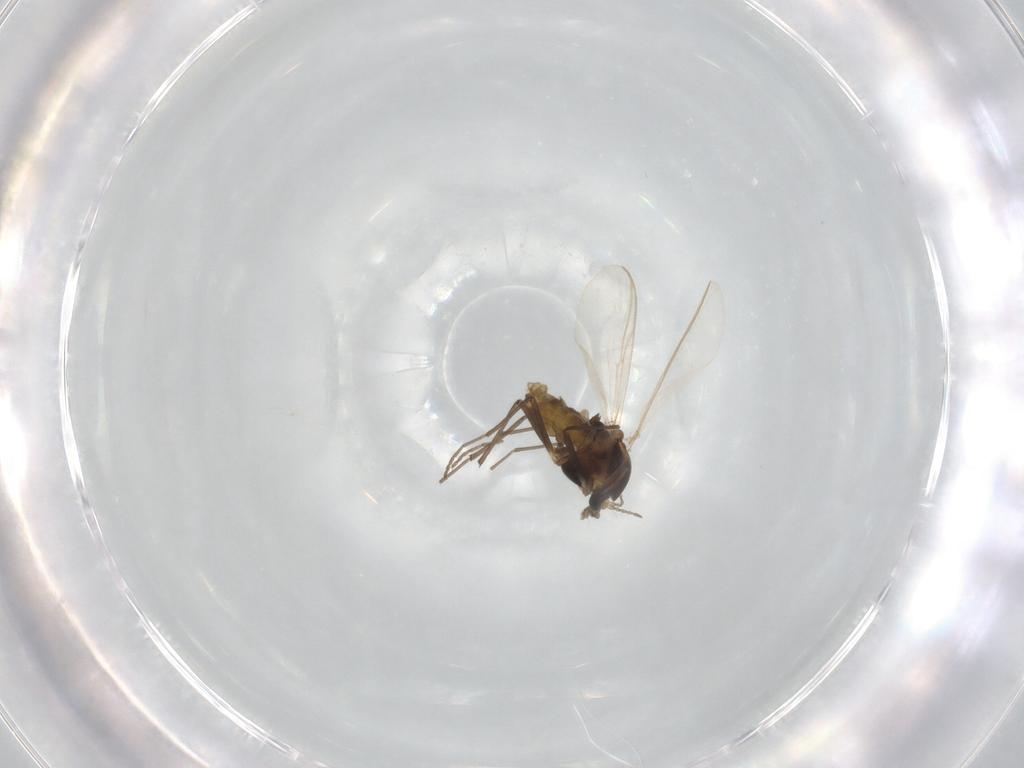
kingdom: Animalia
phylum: Arthropoda
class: Insecta
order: Diptera
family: Chironomidae
